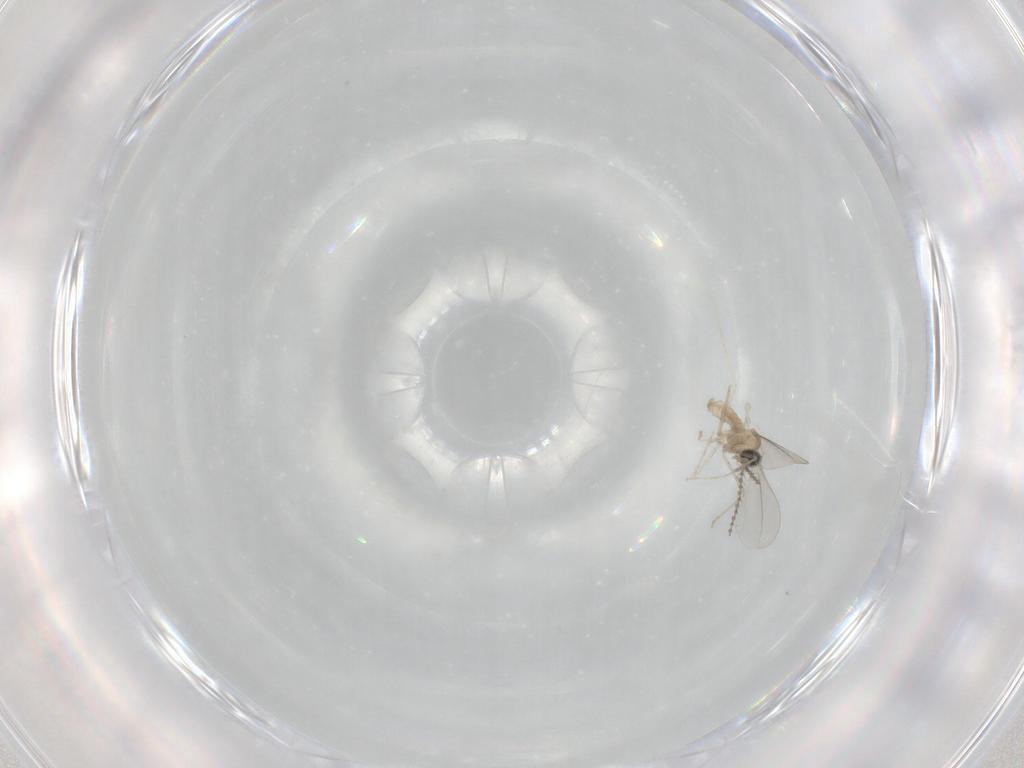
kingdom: Animalia
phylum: Arthropoda
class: Insecta
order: Diptera
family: Cecidomyiidae
